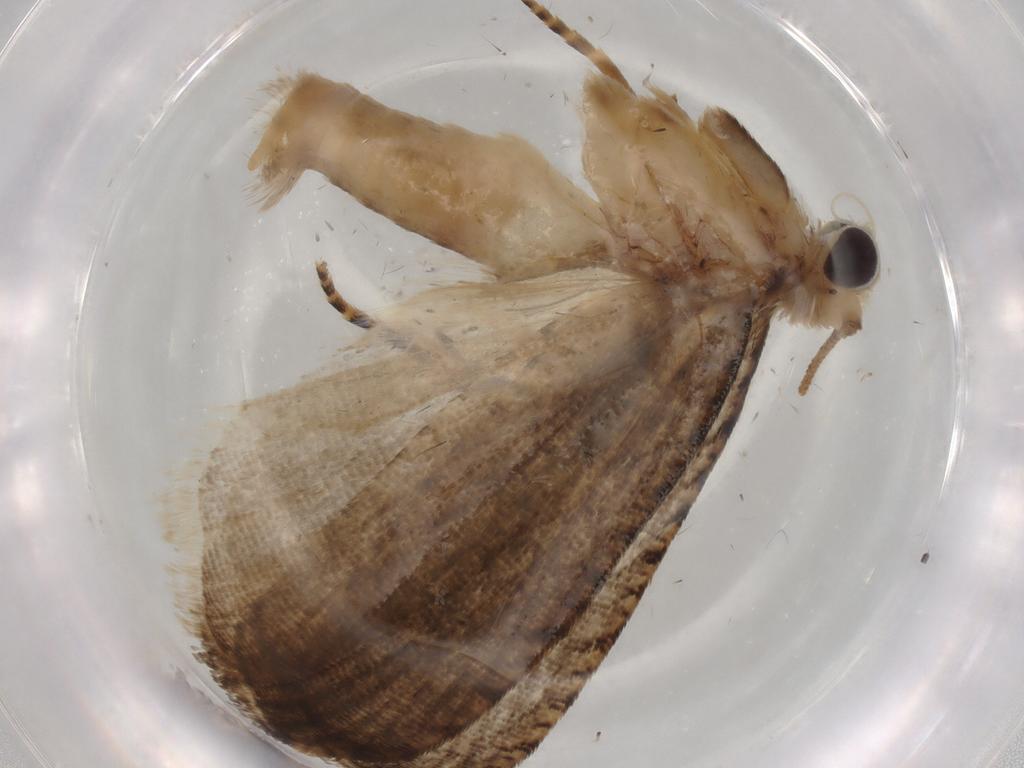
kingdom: Animalia
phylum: Arthropoda
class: Insecta
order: Lepidoptera
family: Tortricidae
